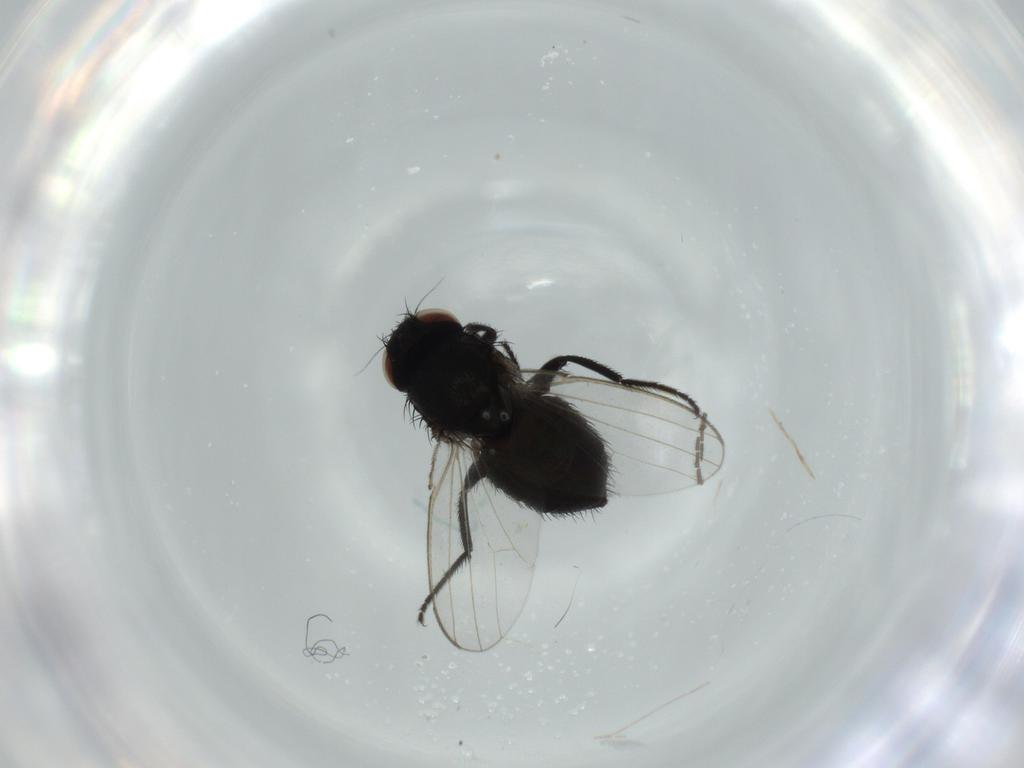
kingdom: Animalia
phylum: Arthropoda
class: Insecta
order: Diptera
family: Milichiidae
